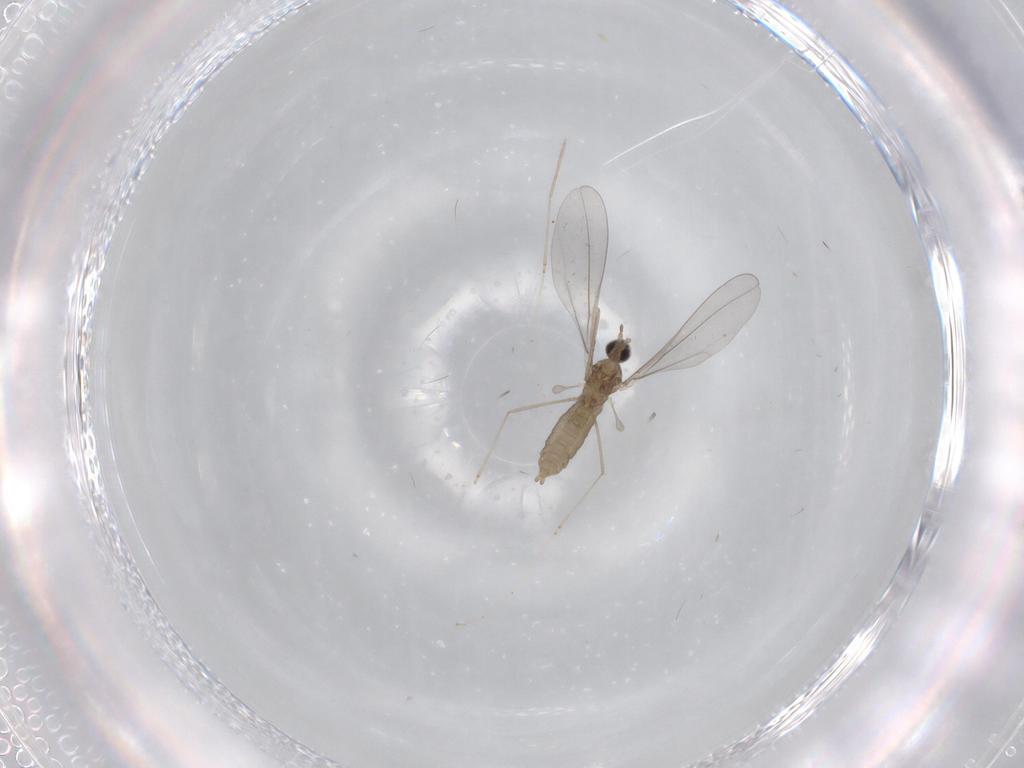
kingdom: Animalia
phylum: Arthropoda
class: Insecta
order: Diptera
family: Cecidomyiidae
